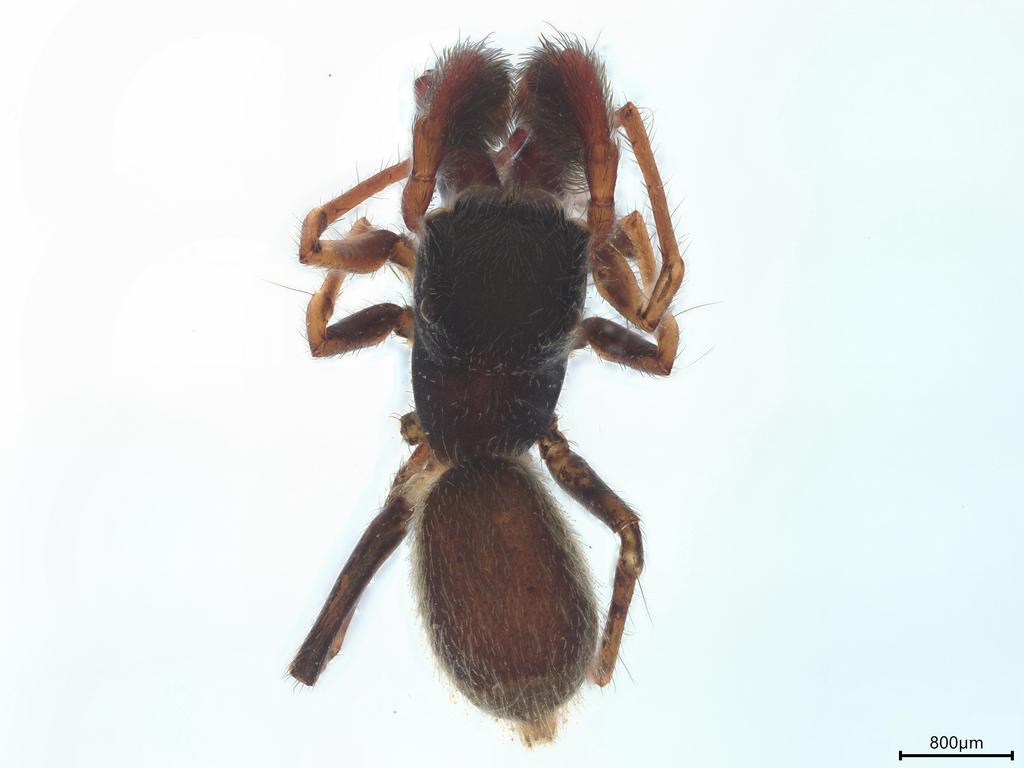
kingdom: Animalia
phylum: Arthropoda
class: Arachnida
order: Araneae
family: Salticidae
